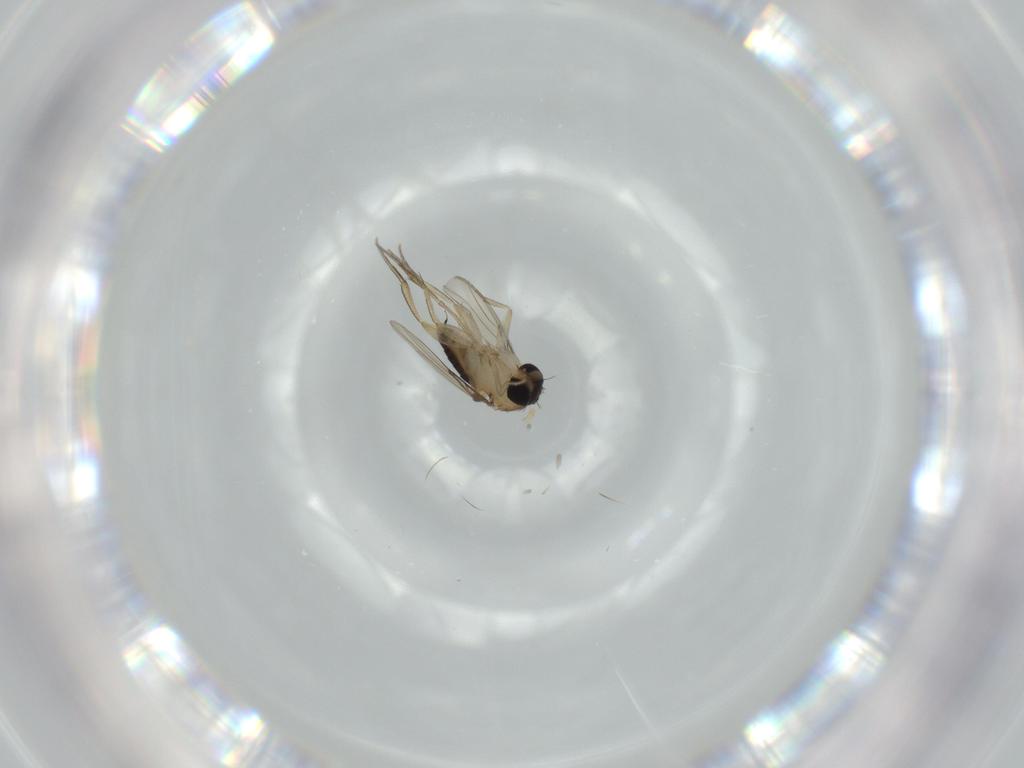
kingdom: Animalia
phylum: Arthropoda
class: Insecta
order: Diptera
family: Phoridae
